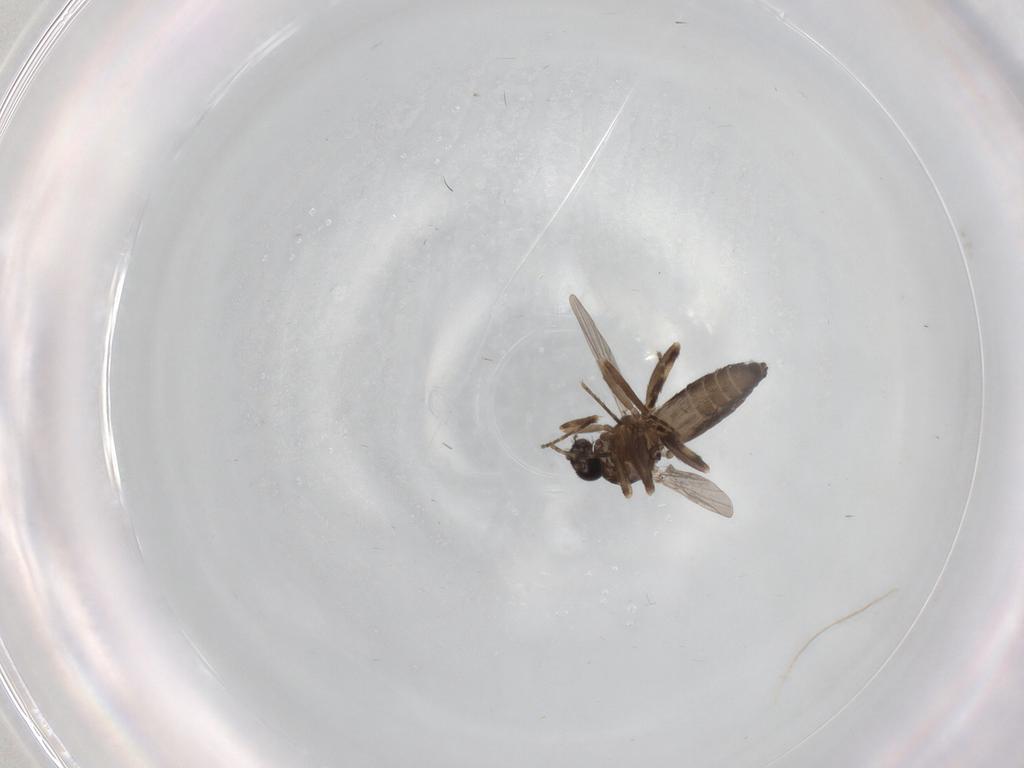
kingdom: Animalia
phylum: Arthropoda
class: Insecta
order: Diptera
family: Ceratopogonidae
